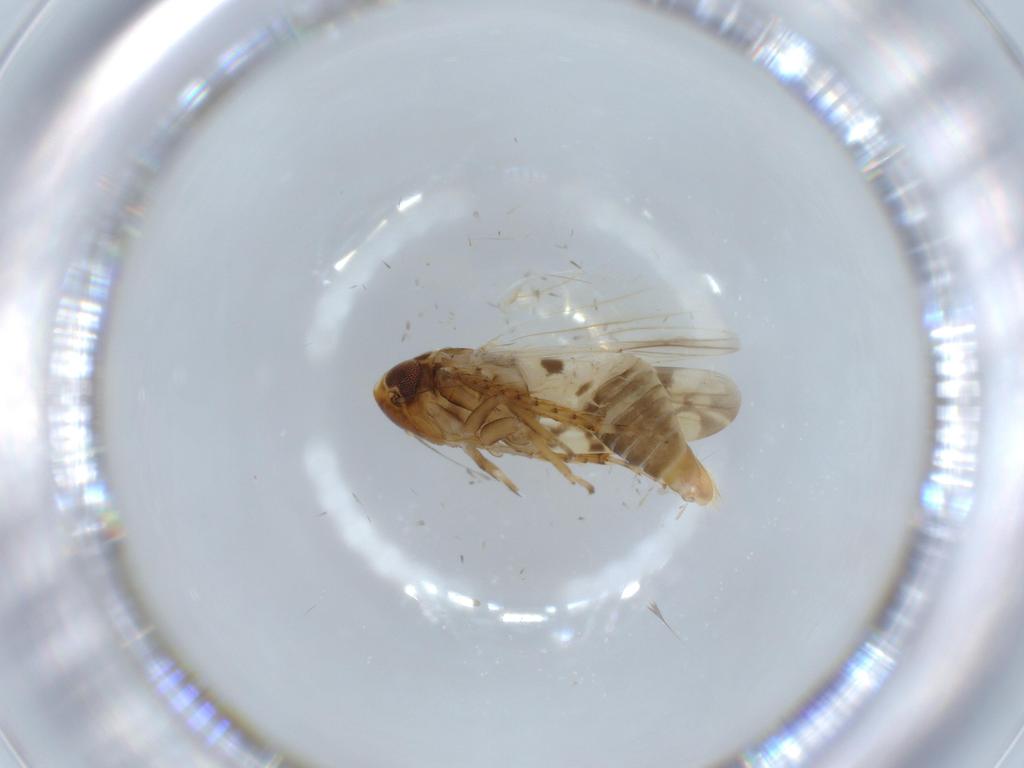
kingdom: Animalia
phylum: Arthropoda
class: Insecta
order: Hemiptera
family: Cicadellidae
